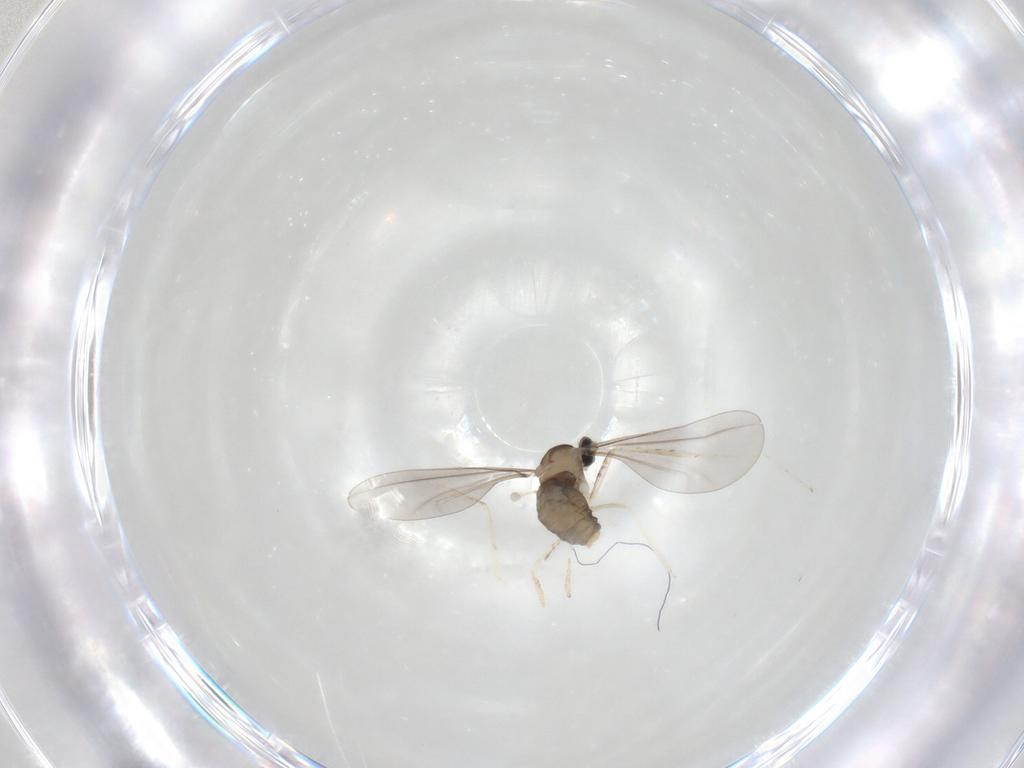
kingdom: Animalia
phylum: Arthropoda
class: Insecta
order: Diptera
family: Cecidomyiidae
